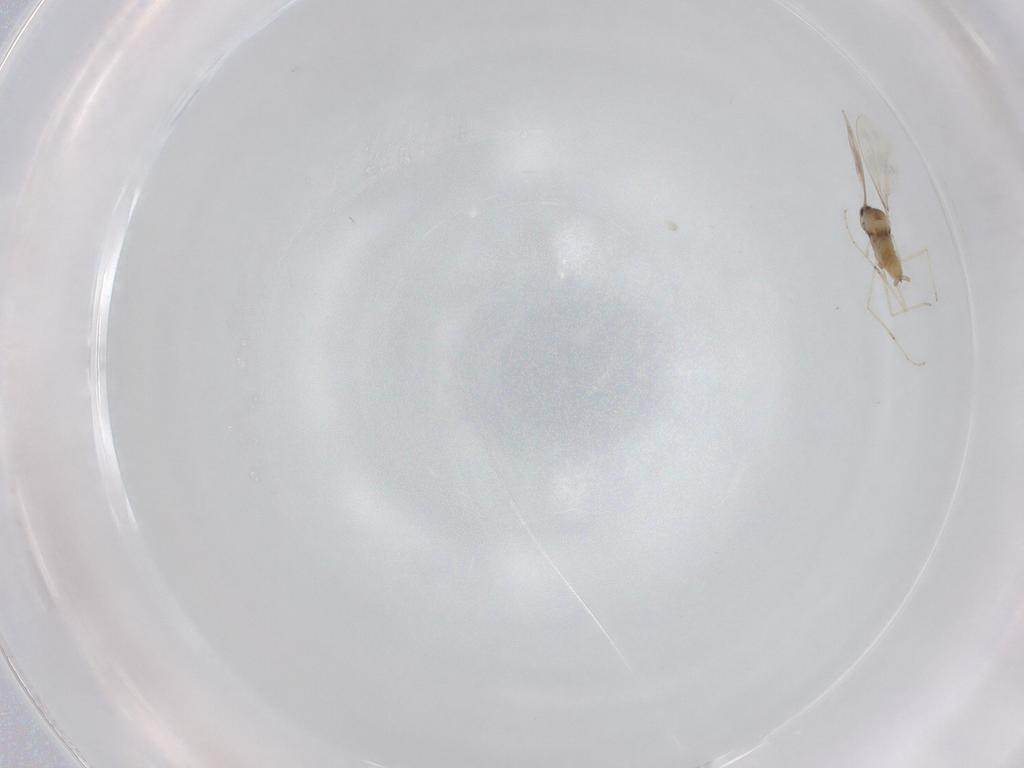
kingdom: Animalia
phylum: Arthropoda
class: Insecta
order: Diptera
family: Cecidomyiidae
